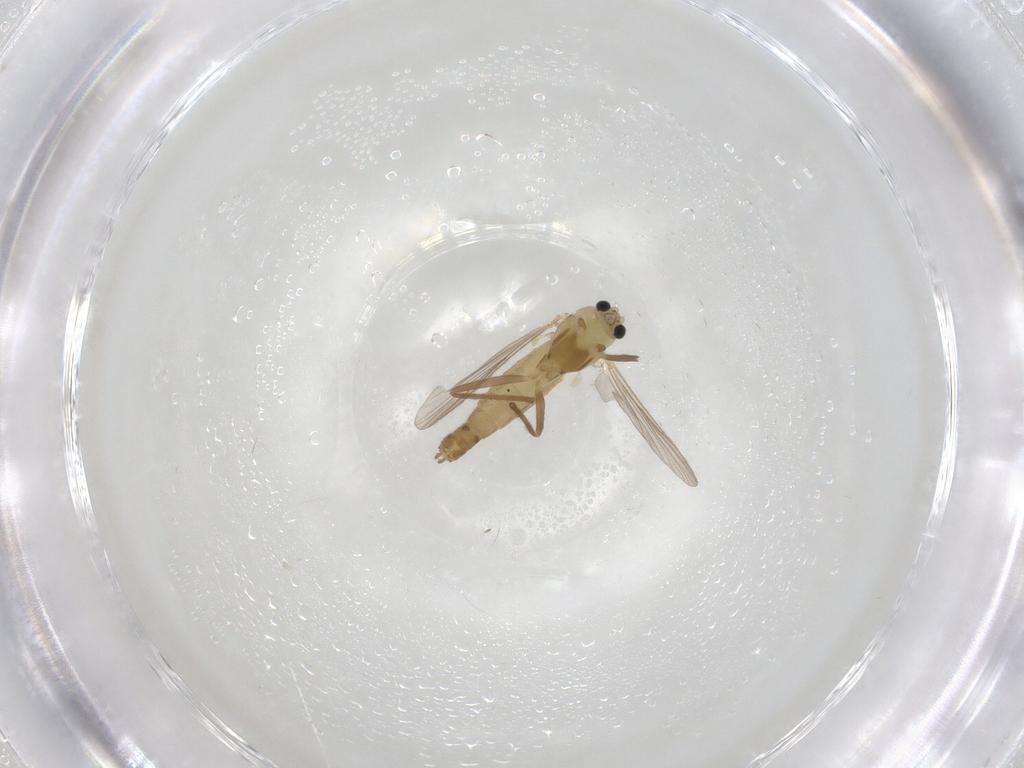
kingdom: Animalia
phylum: Arthropoda
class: Insecta
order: Diptera
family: Chironomidae
